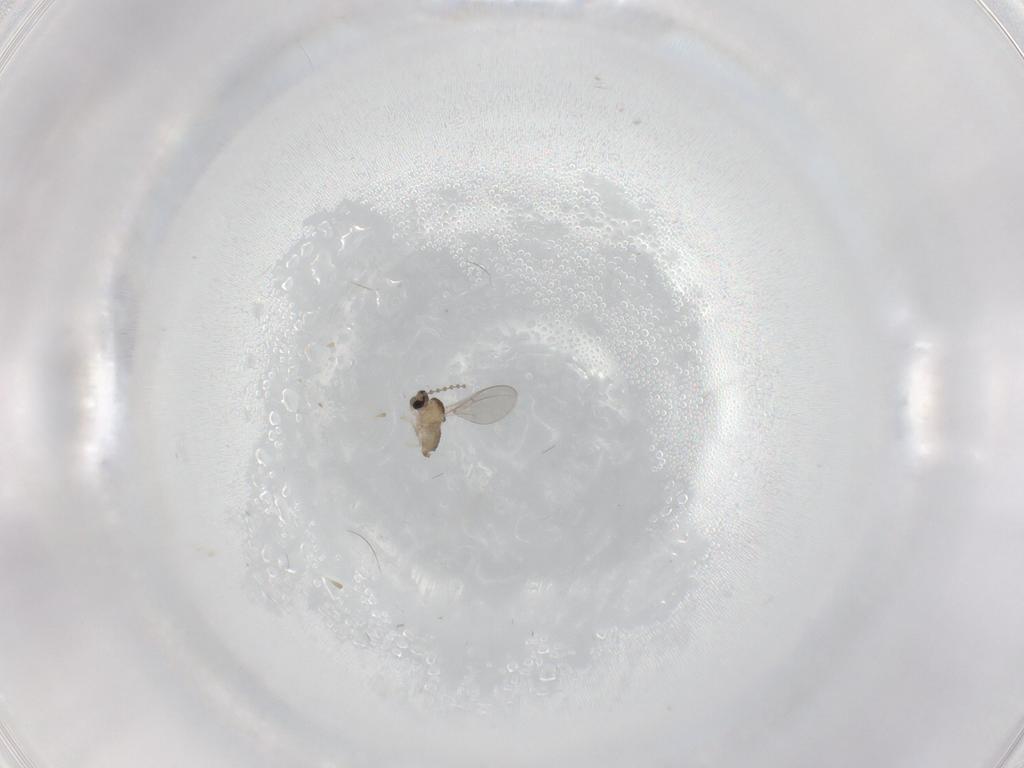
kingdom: Animalia
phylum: Arthropoda
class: Insecta
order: Diptera
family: Cecidomyiidae
